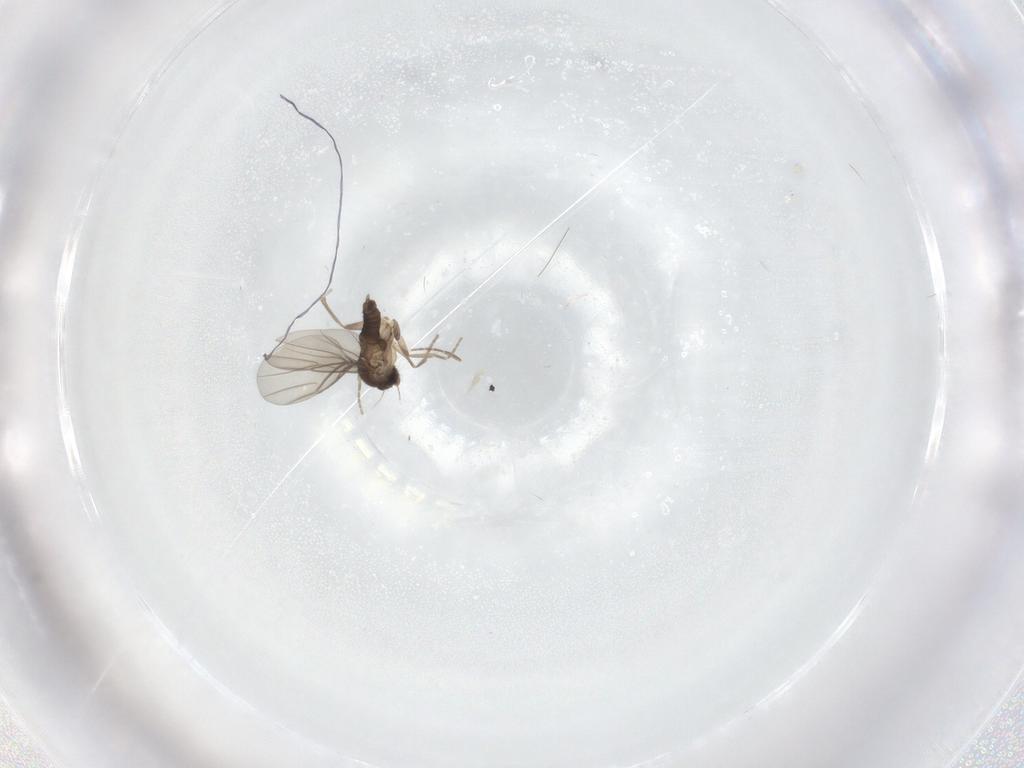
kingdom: Animalia
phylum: Arthropoda
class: Insecta
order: Diptera
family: Phoridae
